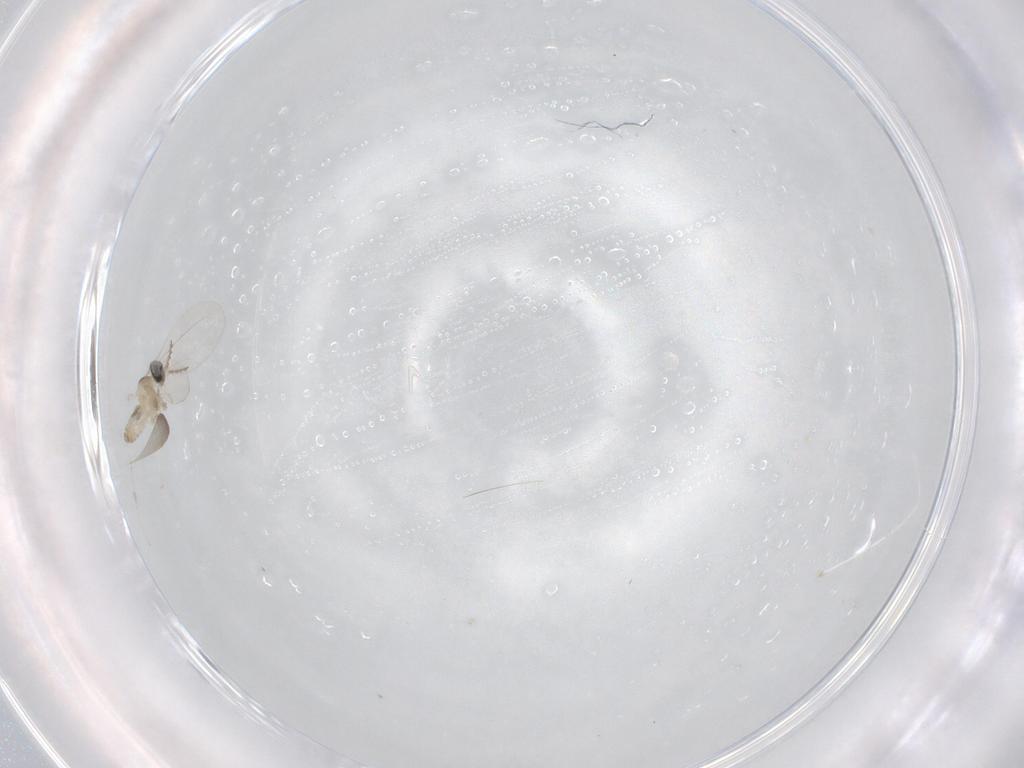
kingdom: Animalia
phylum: Arthropoda
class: Insecta
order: Diptera
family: Cecidomyiidae
